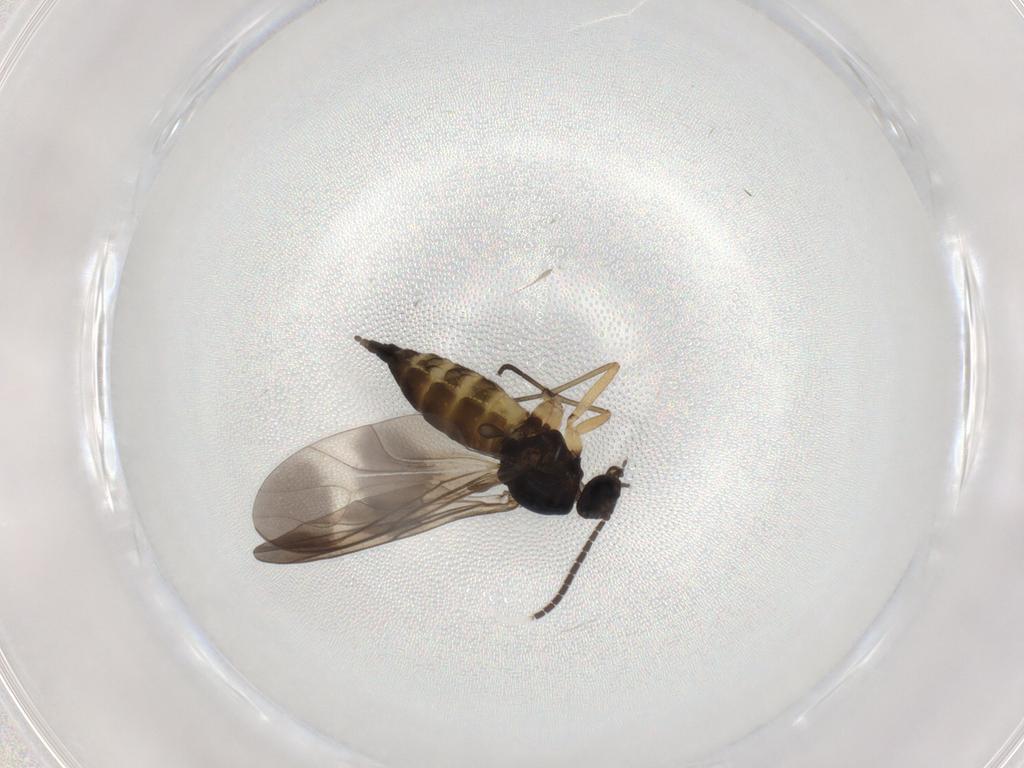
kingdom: Animalia
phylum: Arthropoda
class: Insecta
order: Diptera
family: Sciaridae
